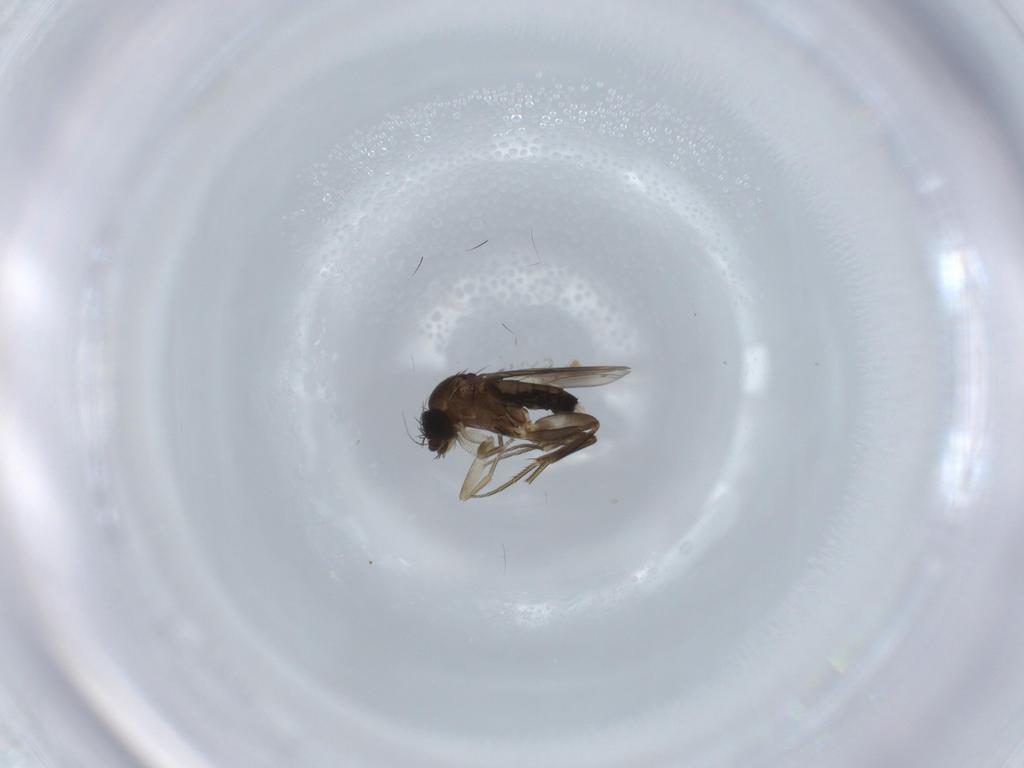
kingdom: Animalia
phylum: Arthropoda
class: Insecta
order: Diptera
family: Phoridae
